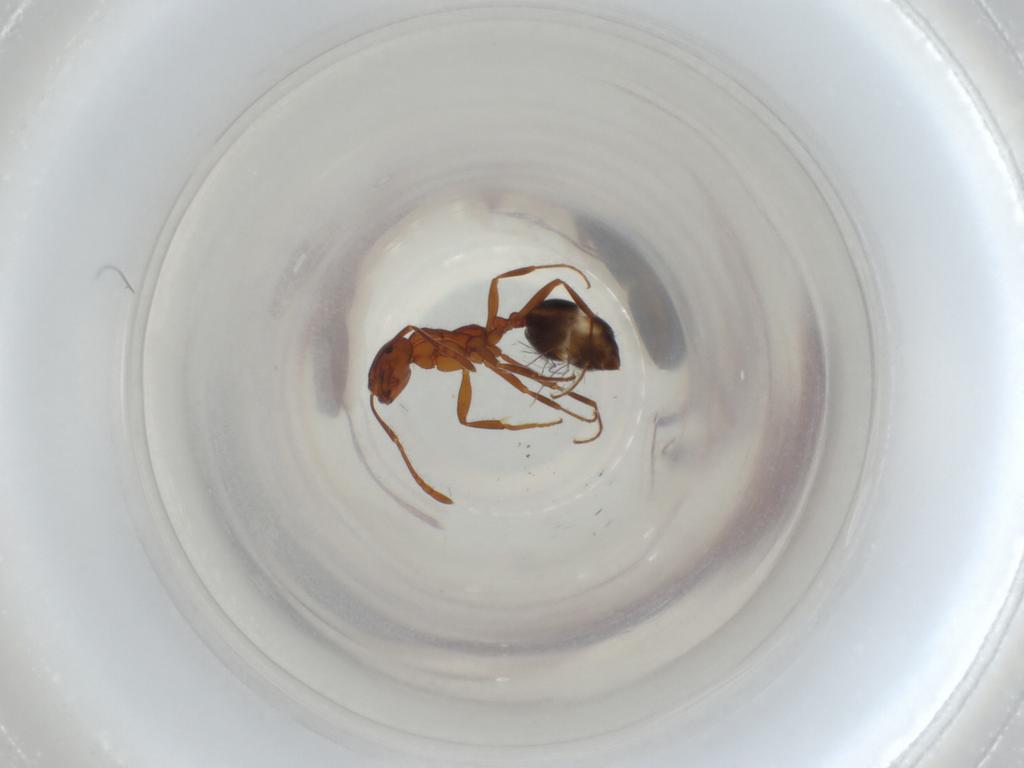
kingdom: Animalia
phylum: Arthropoda
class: Insecta
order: Hymenoptera
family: Formicidae
